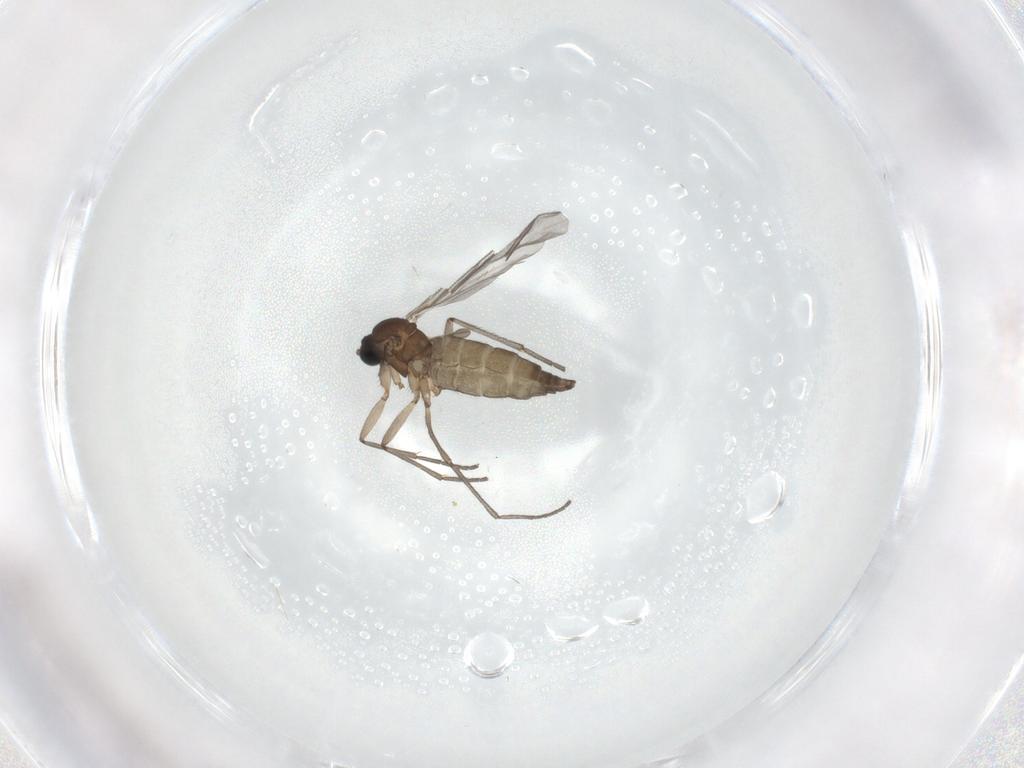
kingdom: Animalia
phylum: Arthropoda
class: Insecta
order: Diptera
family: Sciaridae
